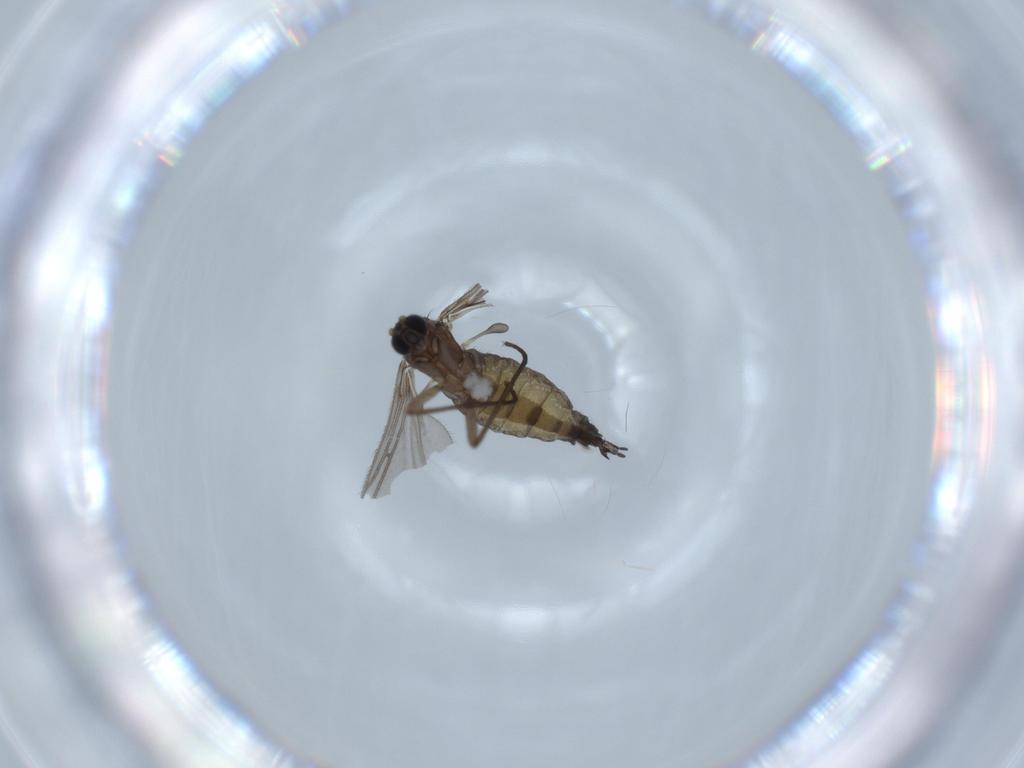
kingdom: Animalia
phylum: Arthropoda
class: Insecta
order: Diptera
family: Sciaridae
